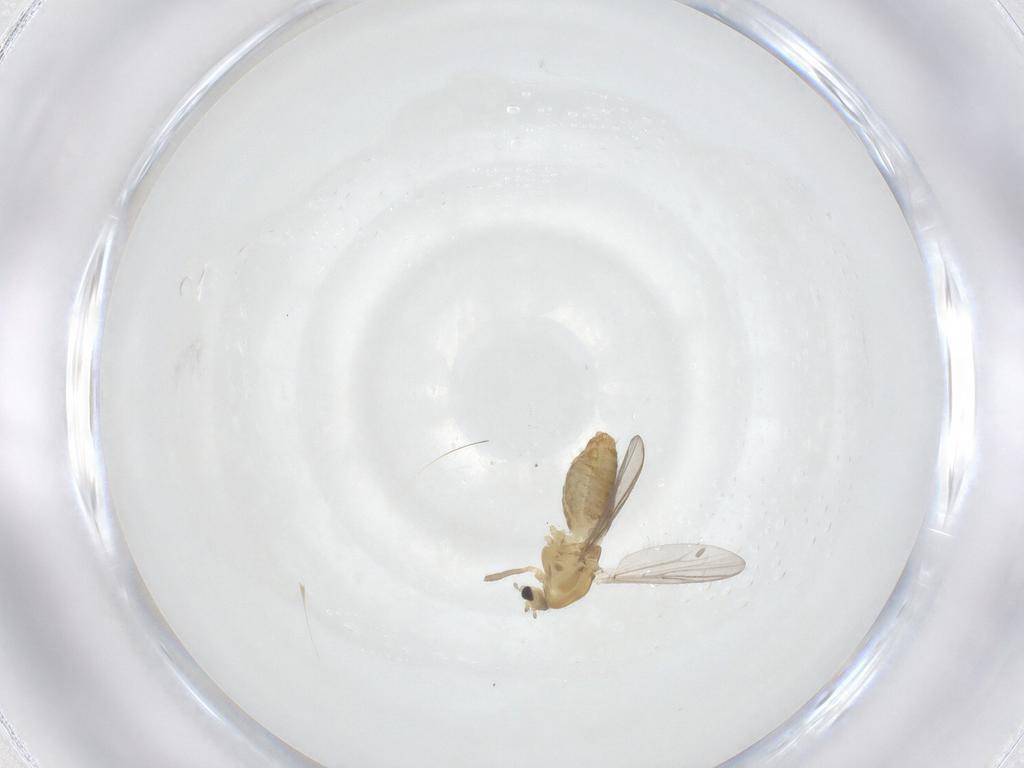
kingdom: Animalia
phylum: Arthropoda
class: Insecta
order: Diptera
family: Chironomidae
